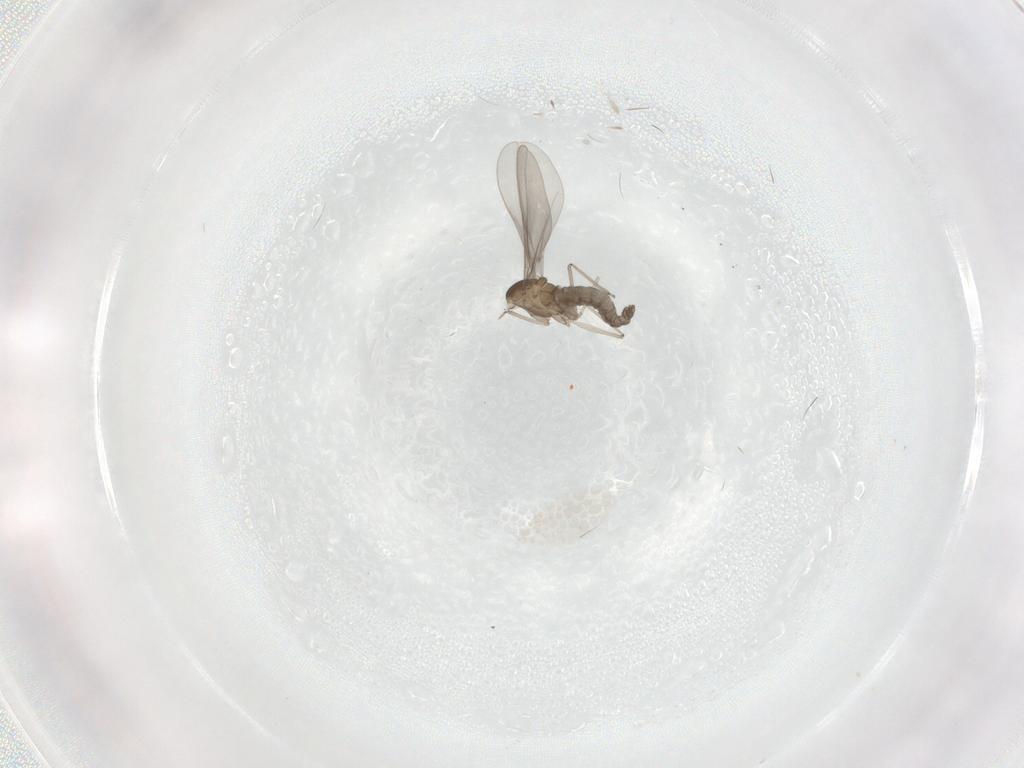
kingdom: Animalia
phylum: Arthropoda
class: Insecta
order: Diptera
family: Cecidomyiidae
